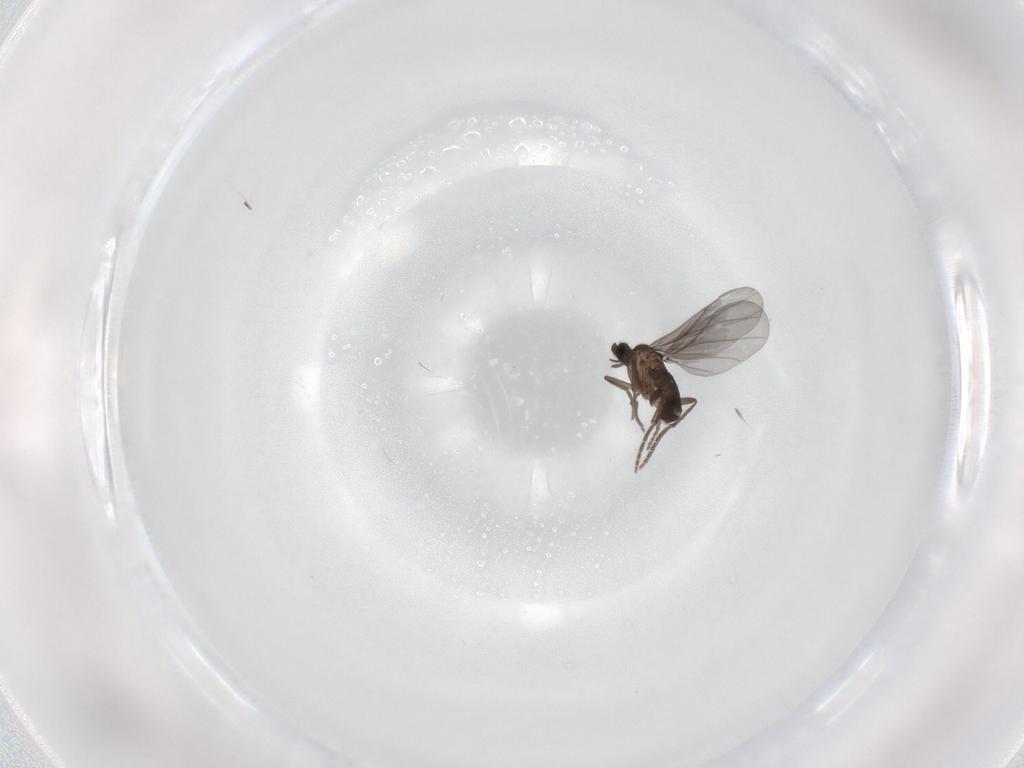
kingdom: Animalia
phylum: Arthropoda
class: Insecta
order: Diptera
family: Phoridae
